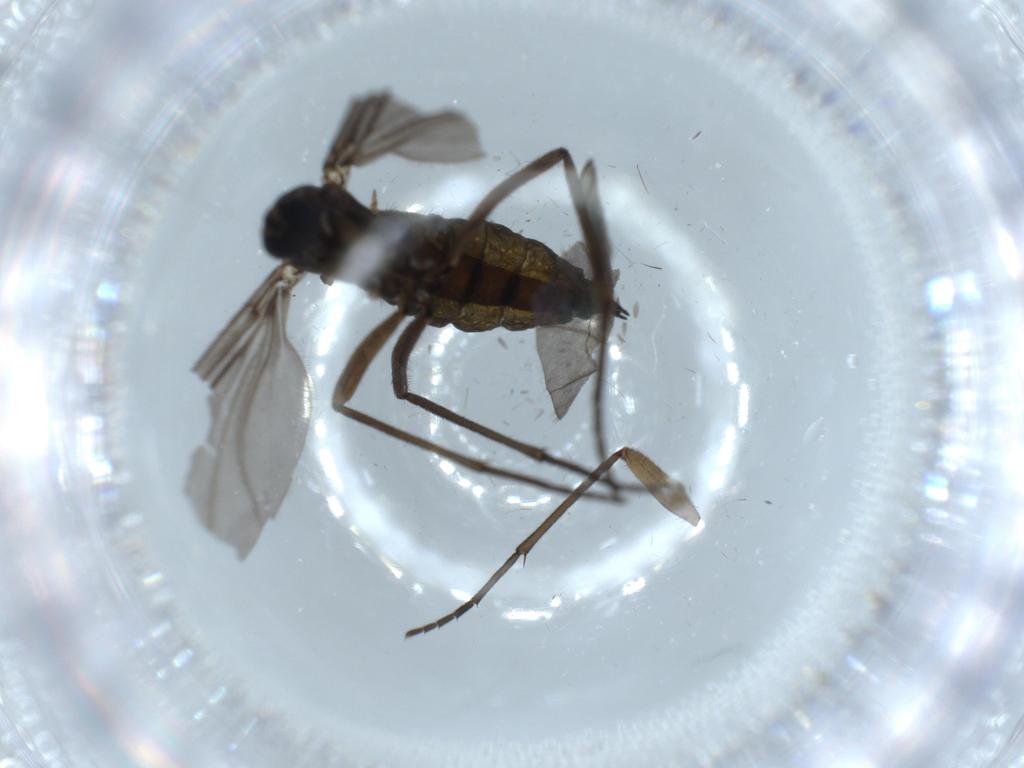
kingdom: Animalia
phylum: Arthropoda
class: Insecta
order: Diptera
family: Sciaridae
